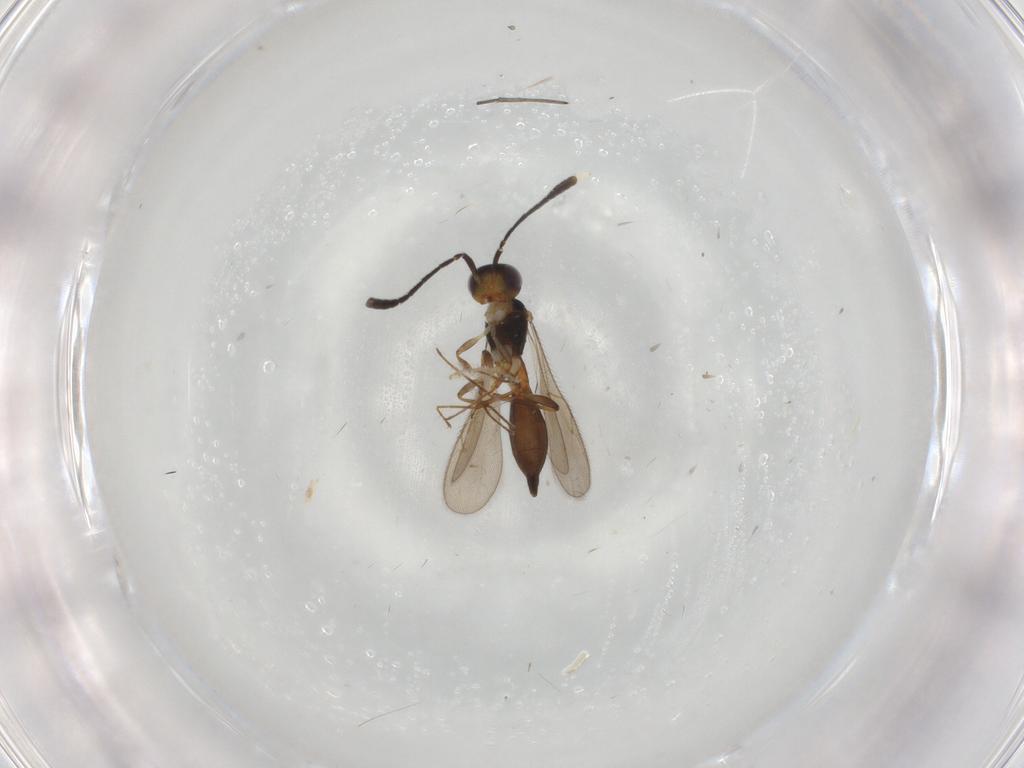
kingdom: Animalia
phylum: Arthropoda
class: Insecta
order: Hymenoptera
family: Scelionidae
